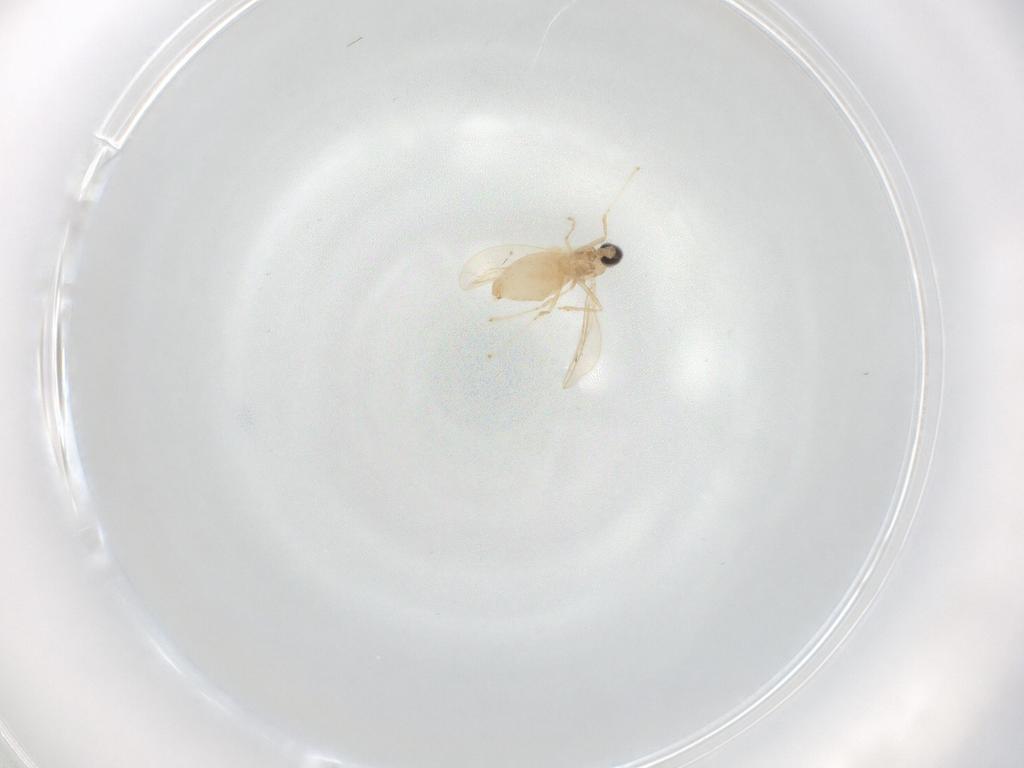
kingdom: Animalia
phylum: Arthropoda
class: Insecta
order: Diptera
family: Cecidomyiidae
